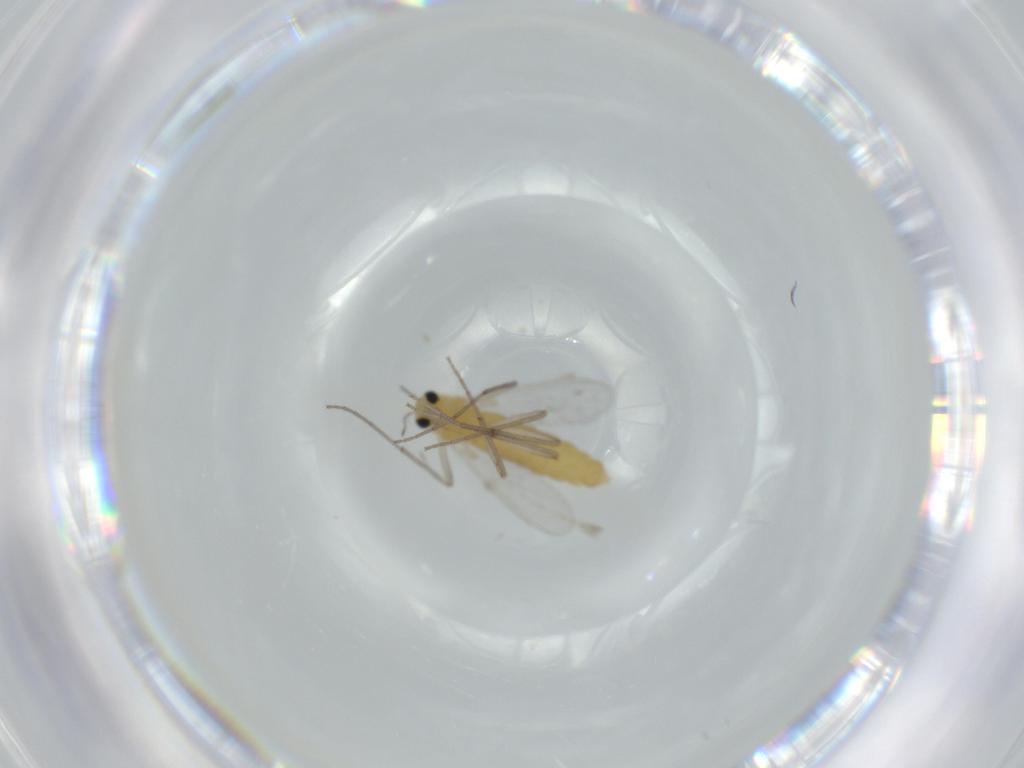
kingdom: Animalia
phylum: Arthropoda
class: Insecta
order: Diptera
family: Chironomidae
